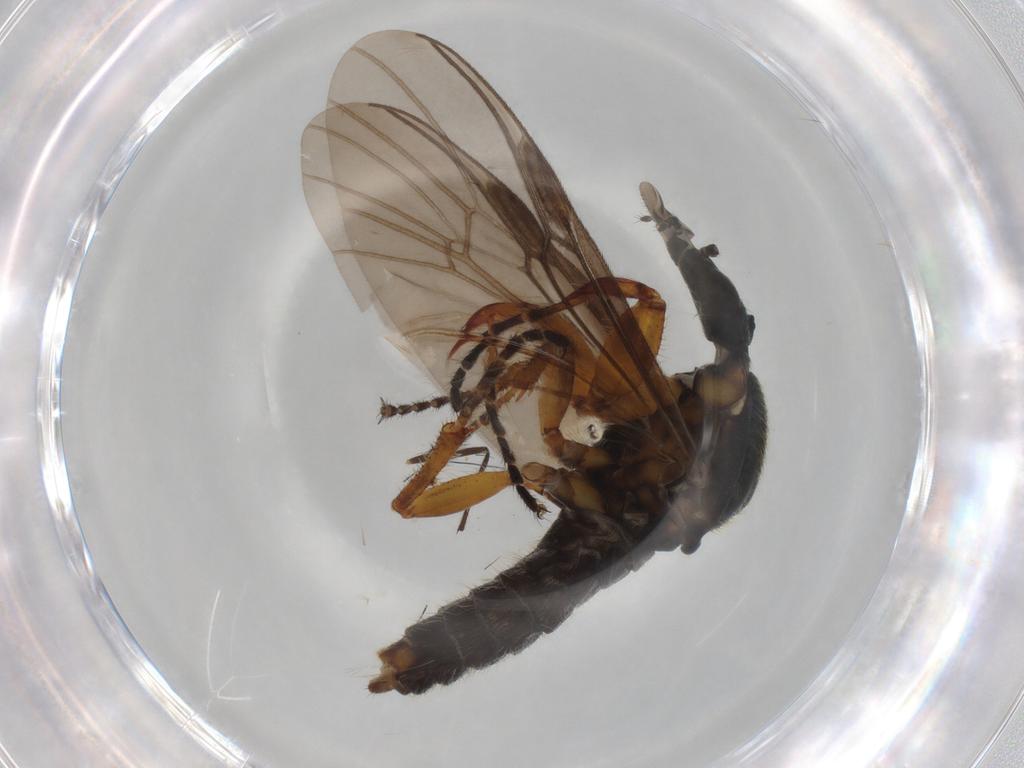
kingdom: Animalia
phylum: Arthropoda
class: Insecta
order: Diptera
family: Bibionidae
